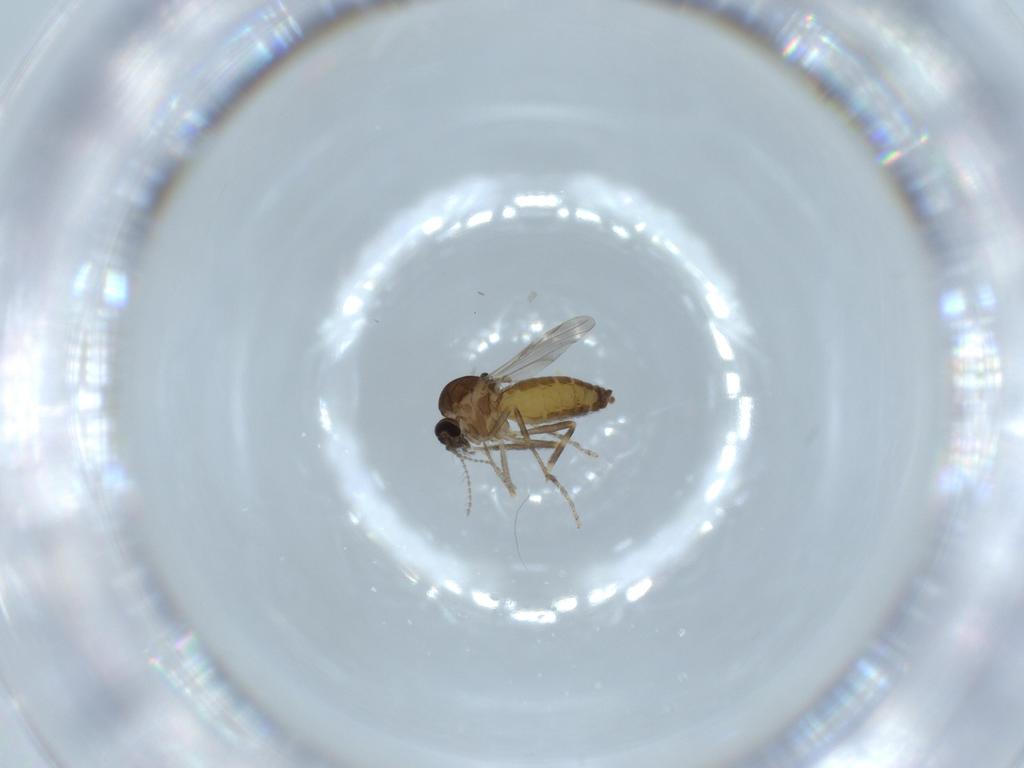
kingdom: Animalia
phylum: Arthropoda
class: Insecta
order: Diptera
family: Ceratopogonidae
